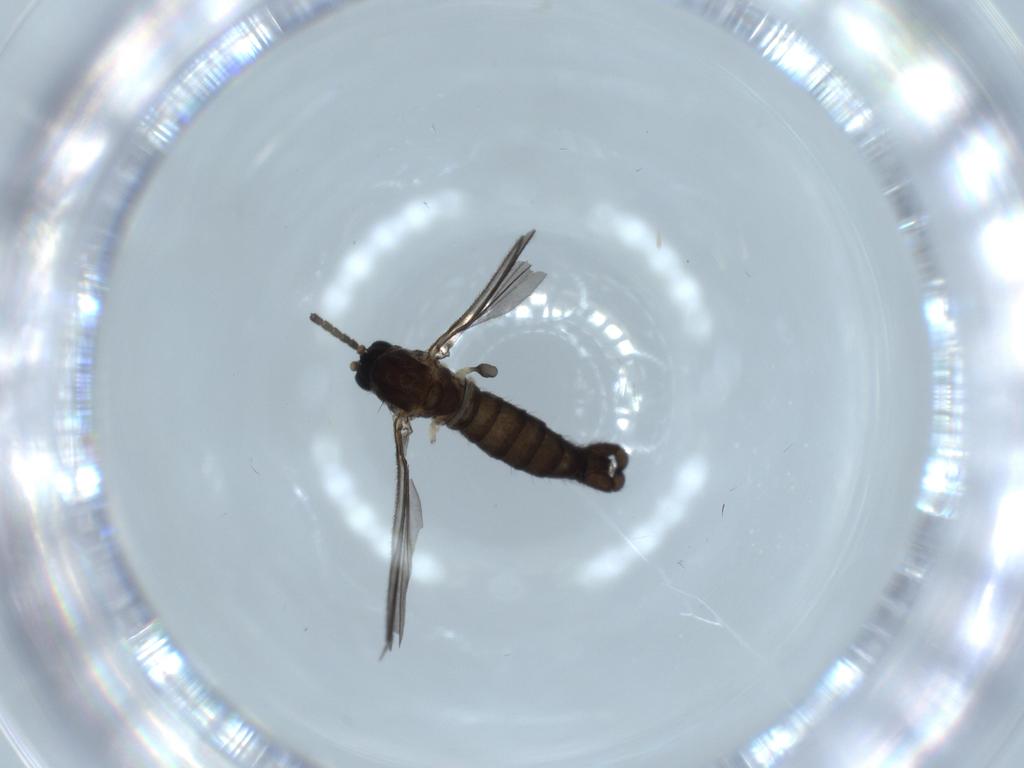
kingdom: Animalia
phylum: Arthropoda
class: Insecta
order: Diptera
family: Sciaridae
